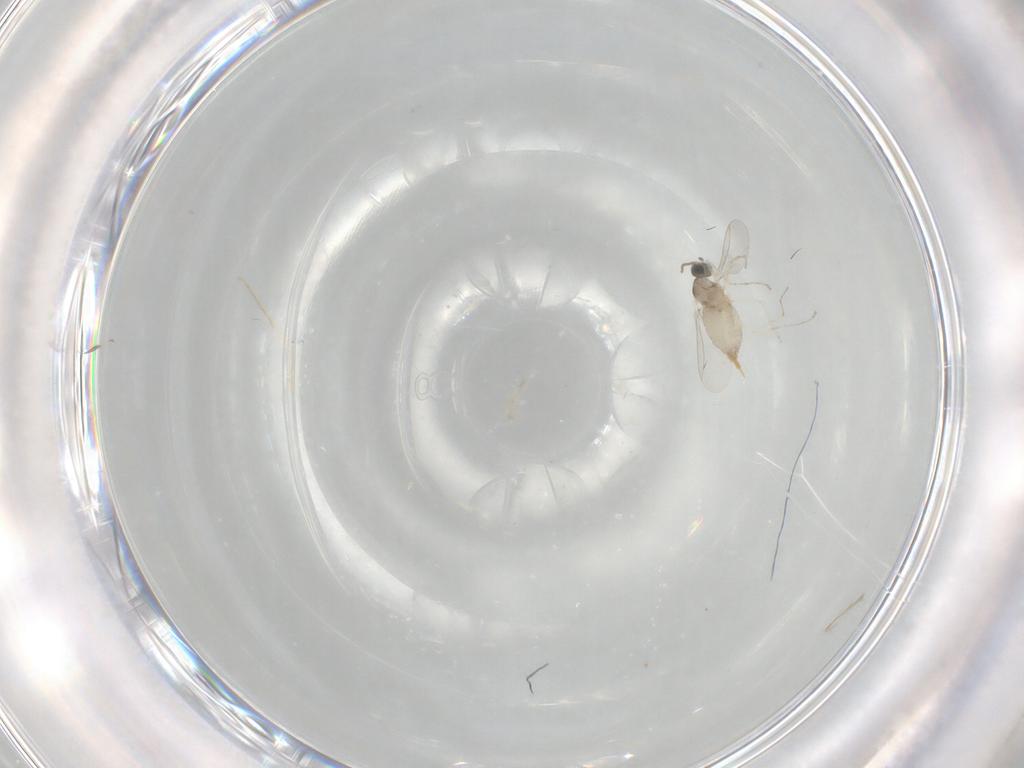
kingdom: Animalia
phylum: Arthropoda
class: Insecta
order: Diptera
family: Cecidomyiidae
